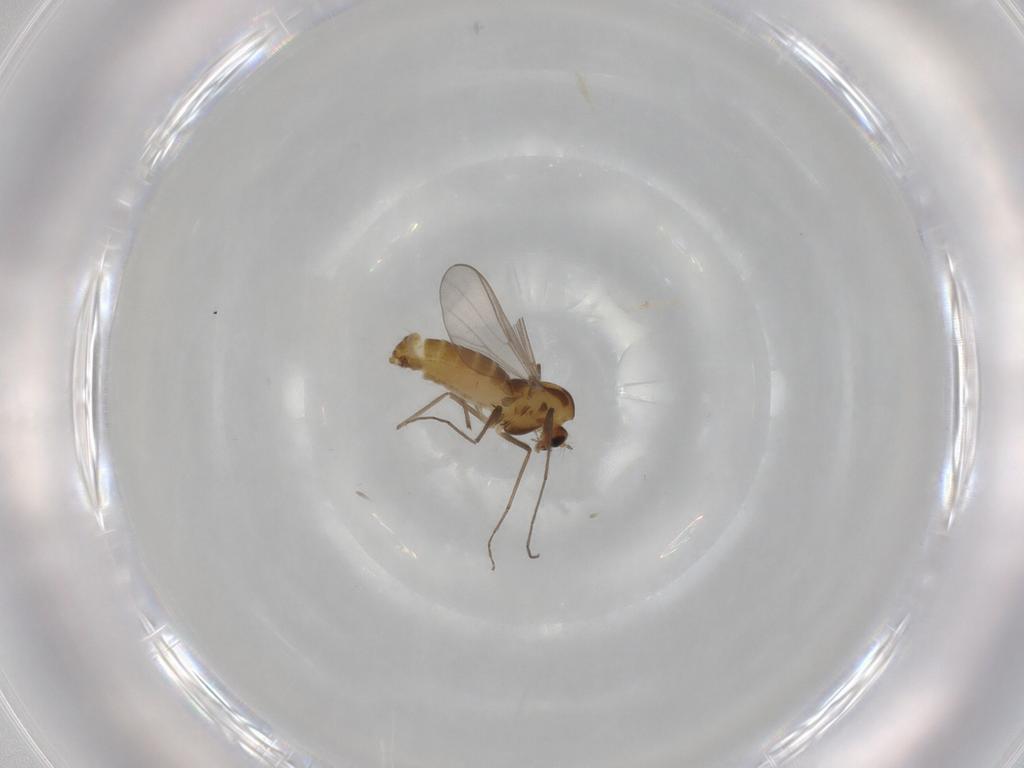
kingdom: Animalia
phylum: Arthropoda
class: Insecta
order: Diptera
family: Chironomidae
